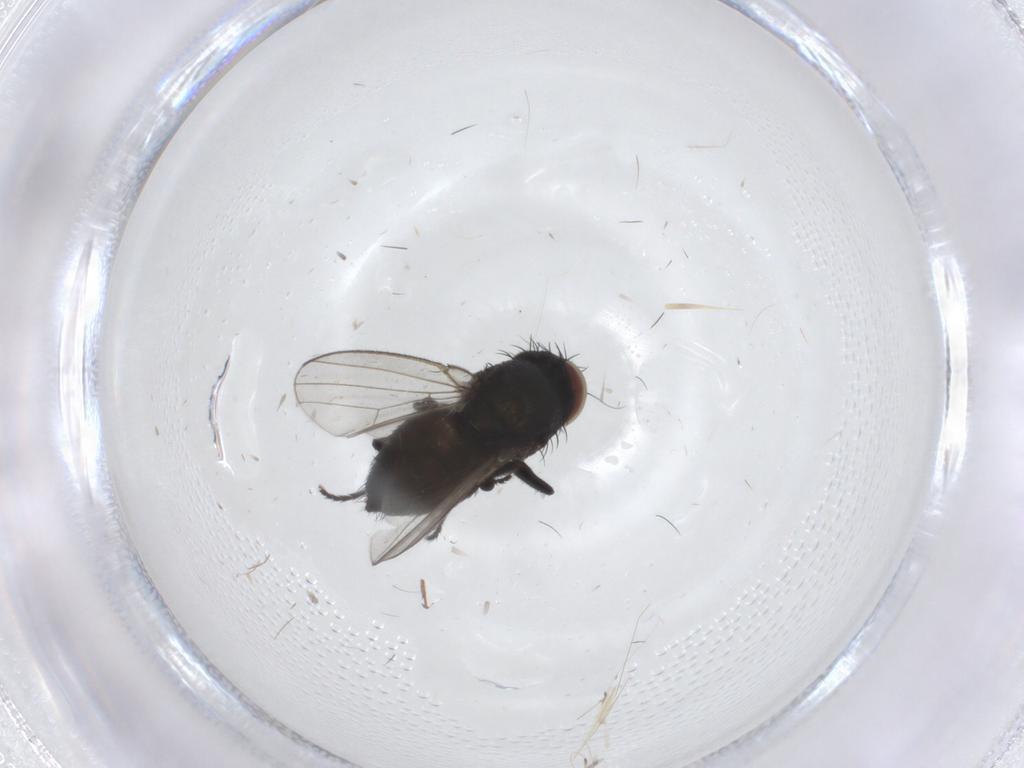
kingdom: Animalia
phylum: Arthropoda
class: Insecta
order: Diptera
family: Milichiidae
